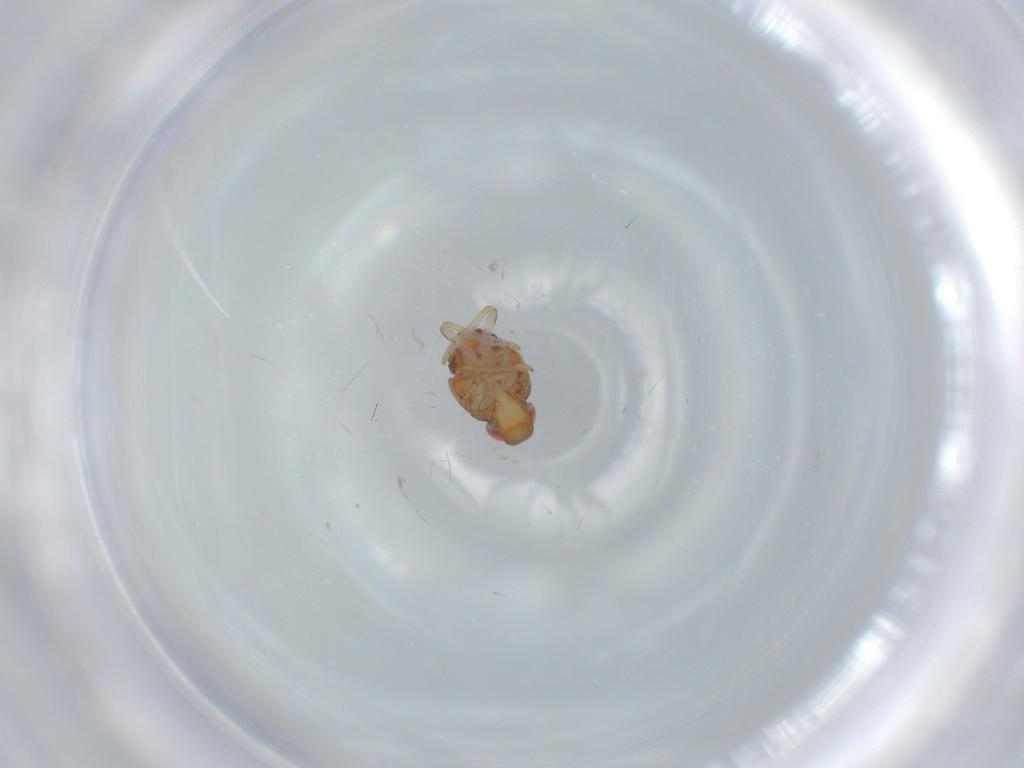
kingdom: Animalia
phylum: Arthropoda
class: Insecta
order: Hemiptera
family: Issidae
